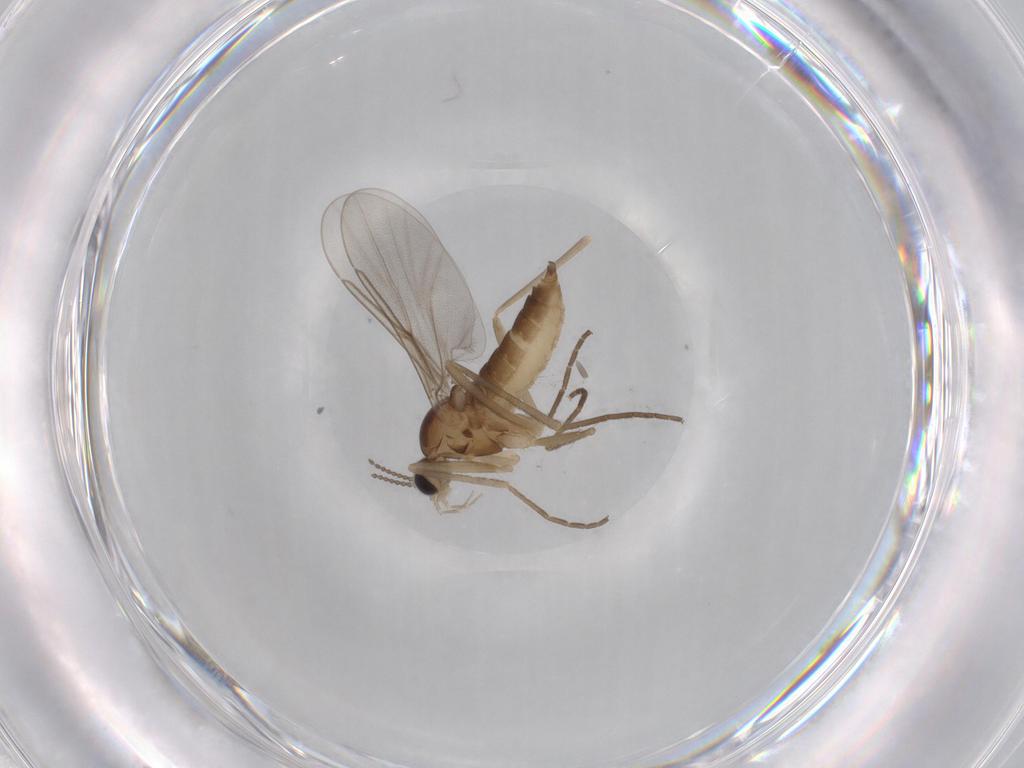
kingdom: Animalia
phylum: Arthropoda
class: Insecta
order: Diptera
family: Cecidomyiidae
